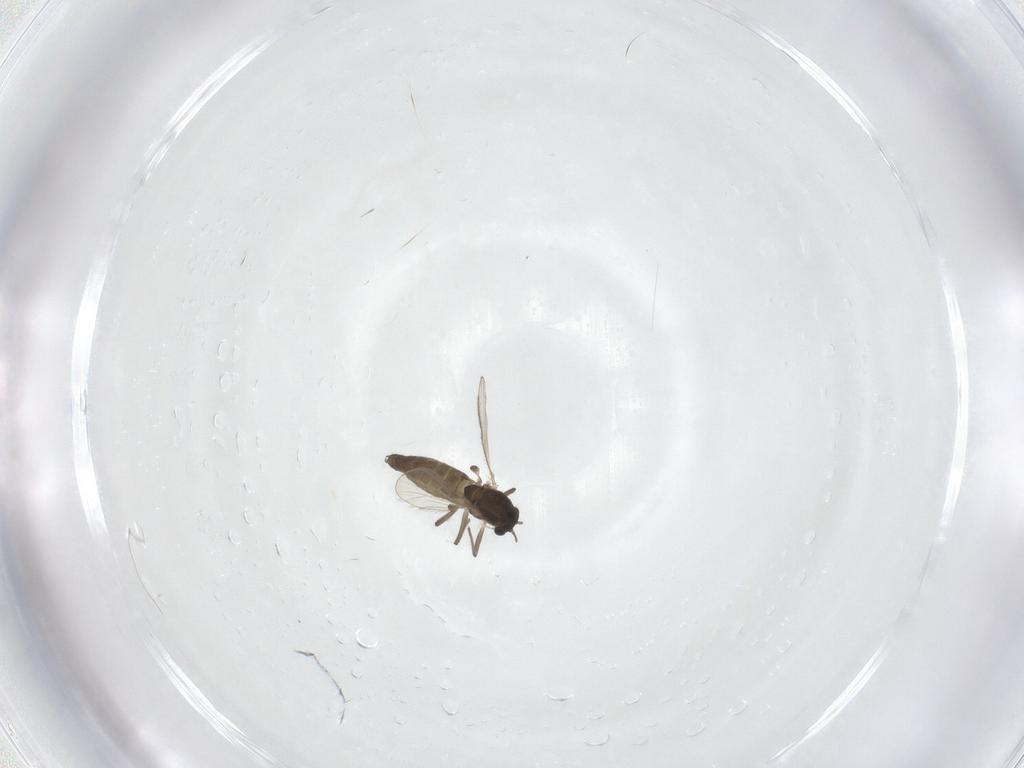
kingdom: Animalia
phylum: Arthropoda
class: Insecta
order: Diptera
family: Chironomidae
